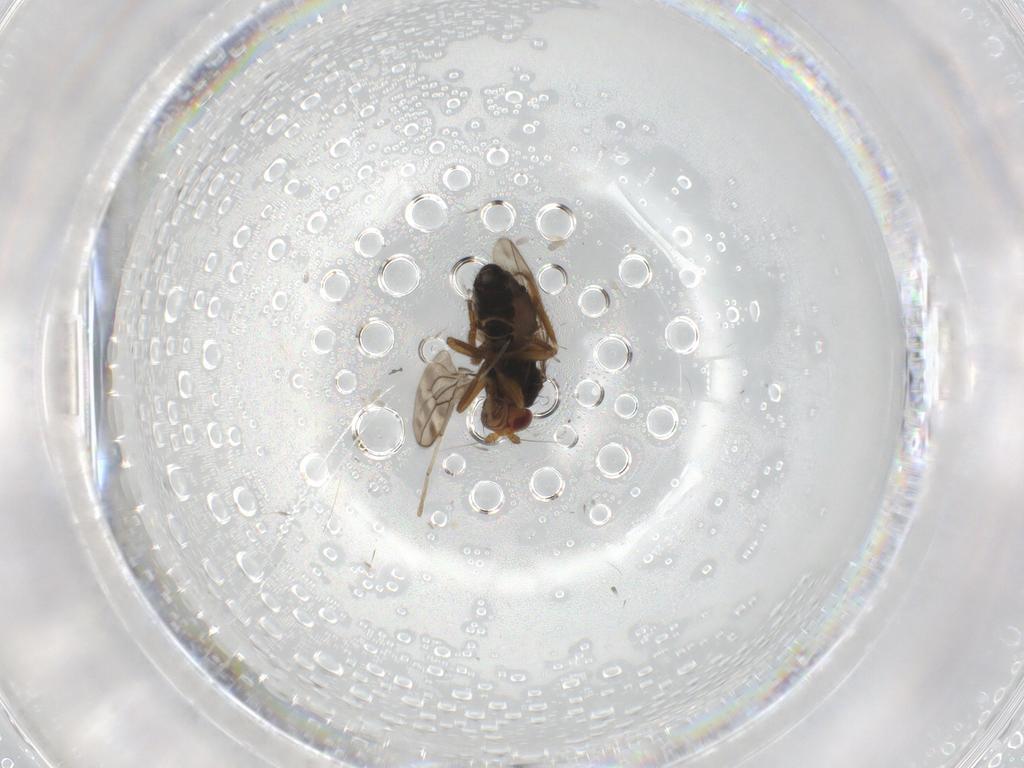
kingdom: Animalia
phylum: Arthropoda
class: Insecta
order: Diptera
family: Sphaeroceridae
